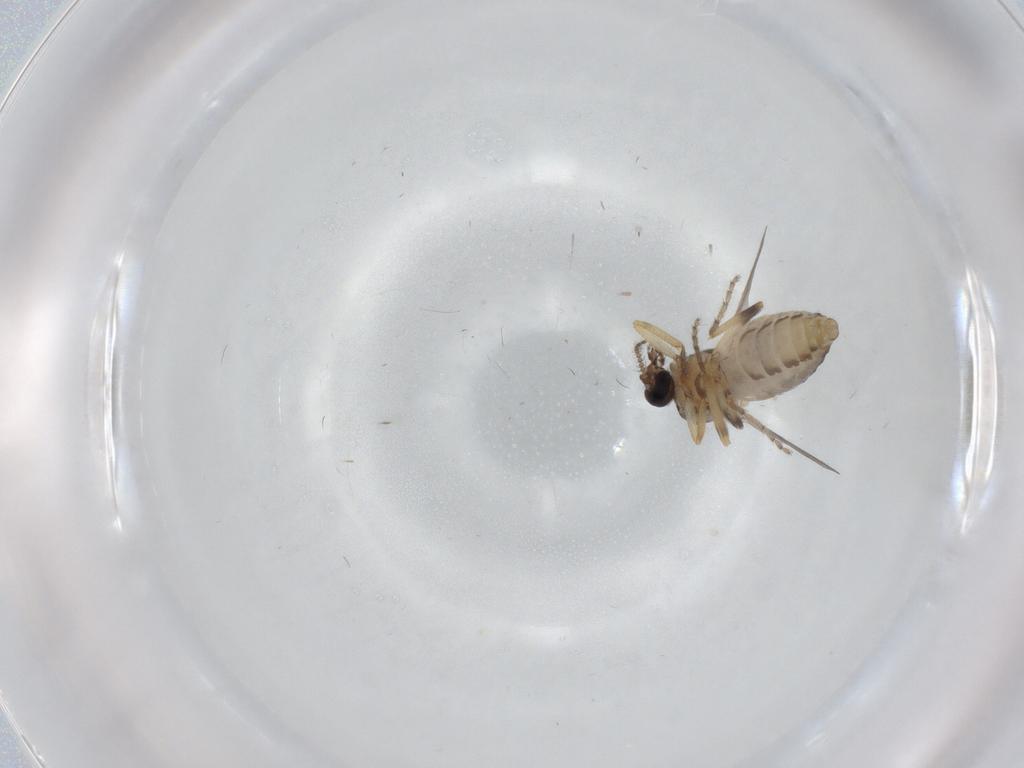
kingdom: Animalia
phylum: Arthropoda
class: Insecta
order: Diptera
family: Ceratopogonidae
